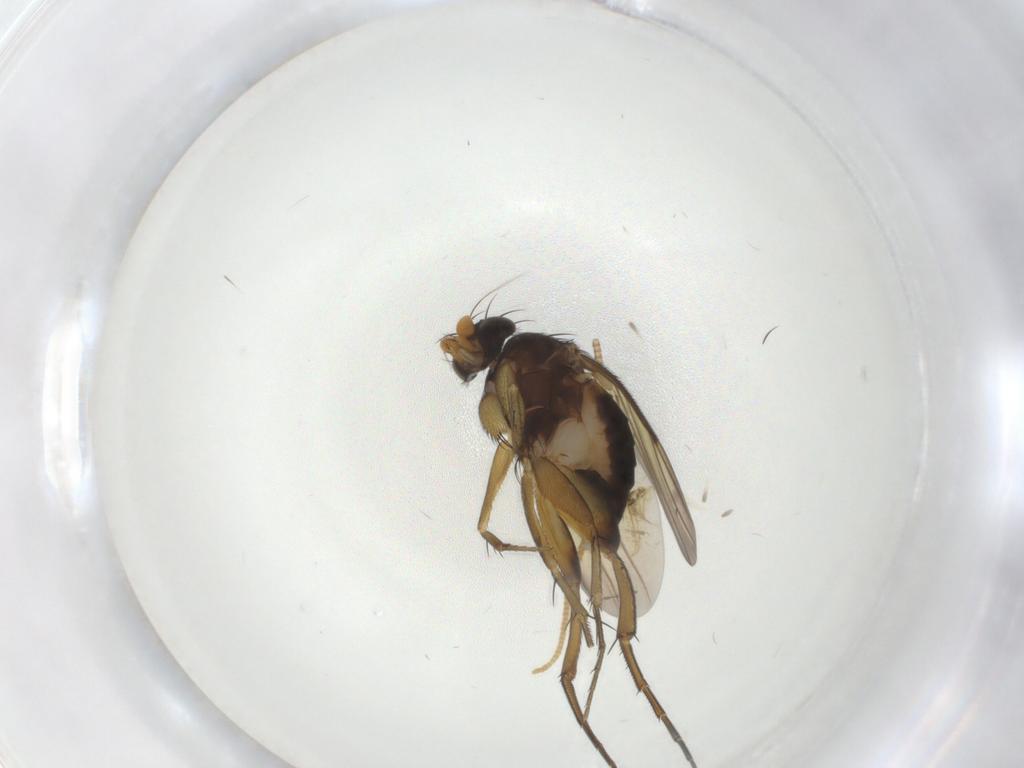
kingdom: Animalia
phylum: Arthropoda
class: Insecta
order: Diptera
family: Phoridae
